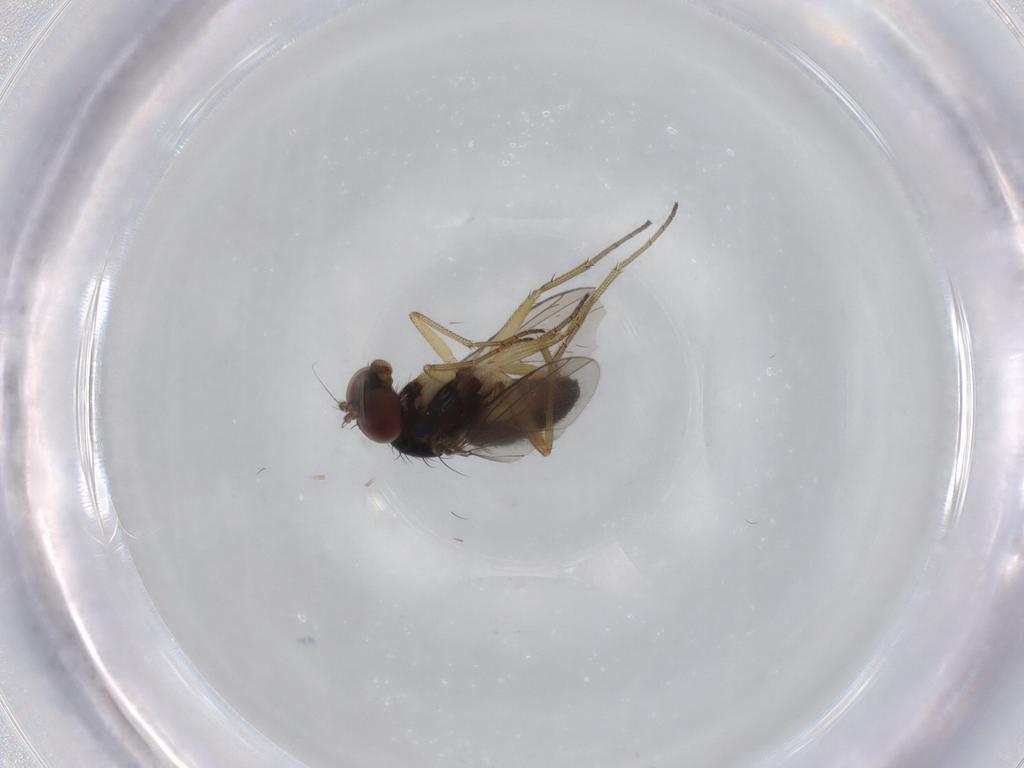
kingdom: Animalia
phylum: Arthropoda
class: Insecta
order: Diptera
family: Dolichopodidae
